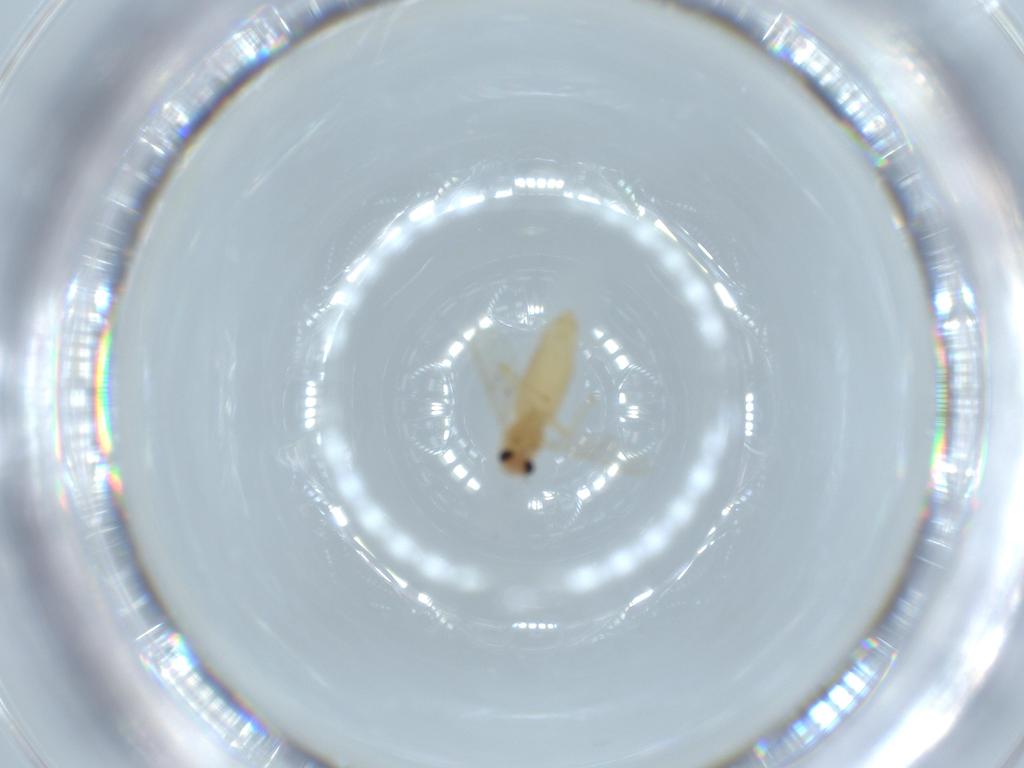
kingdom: Animalia
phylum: Arthropoda
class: Insecta
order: Diptera
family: Chironomidae
